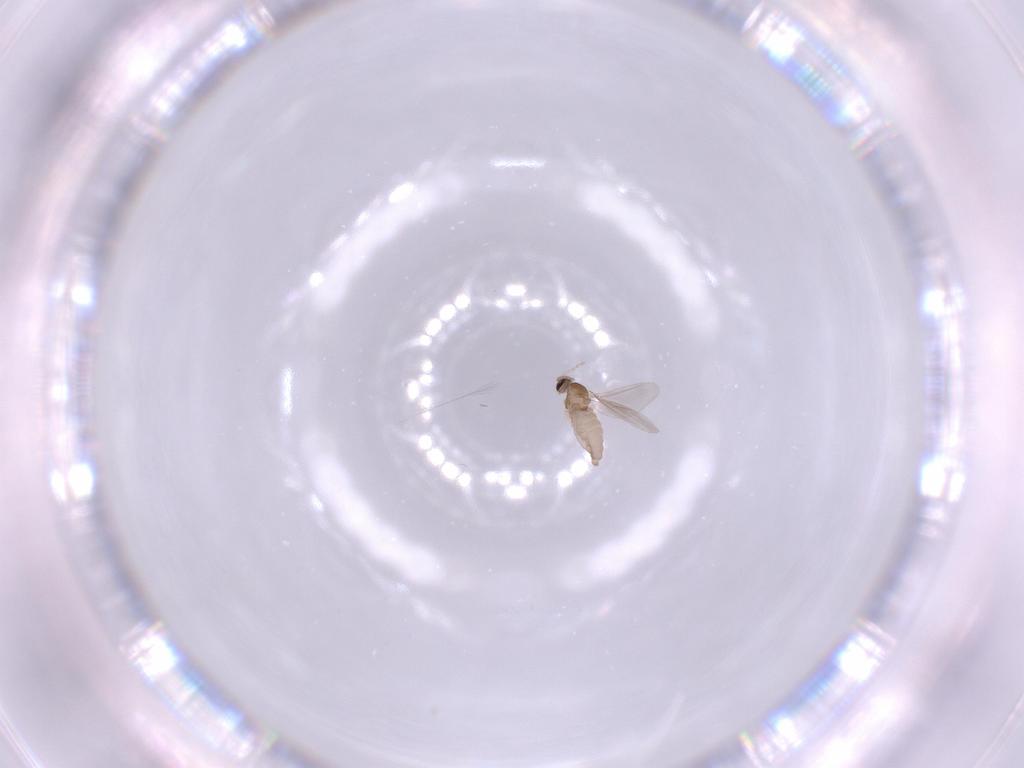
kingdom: Animalia
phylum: Arthropoda
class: Insecta
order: Diptera
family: Cecidomyiidae
